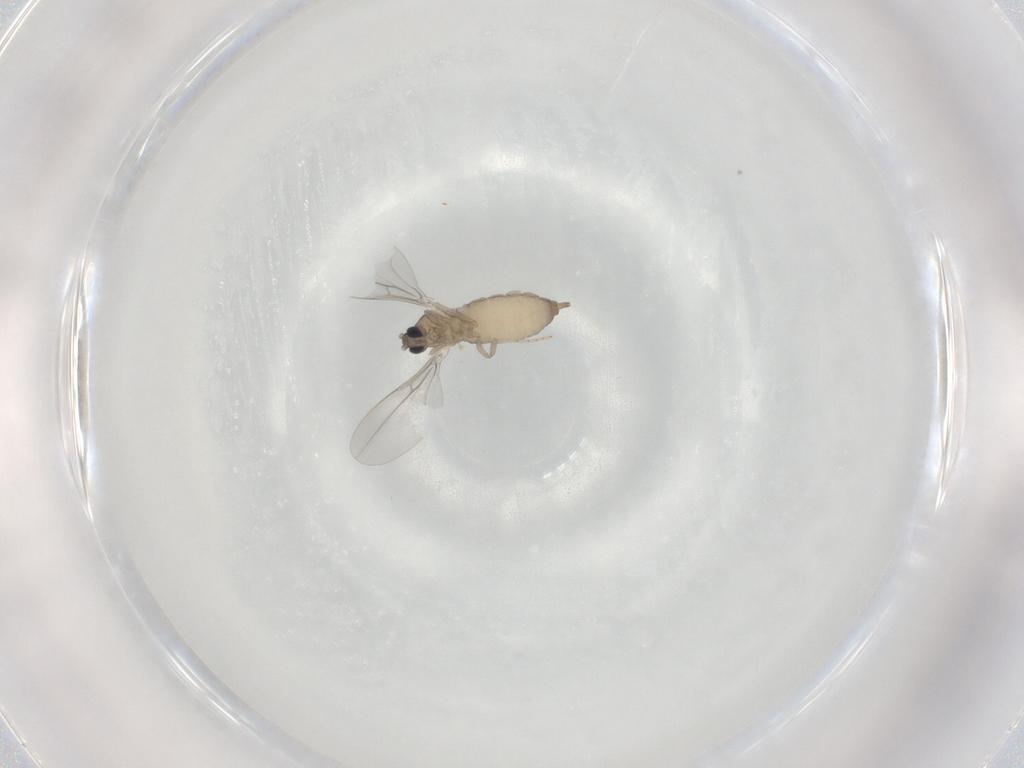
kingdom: Animalia
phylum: Arthropoda
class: Insecta
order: Diptera
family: Cecidomyiidae
